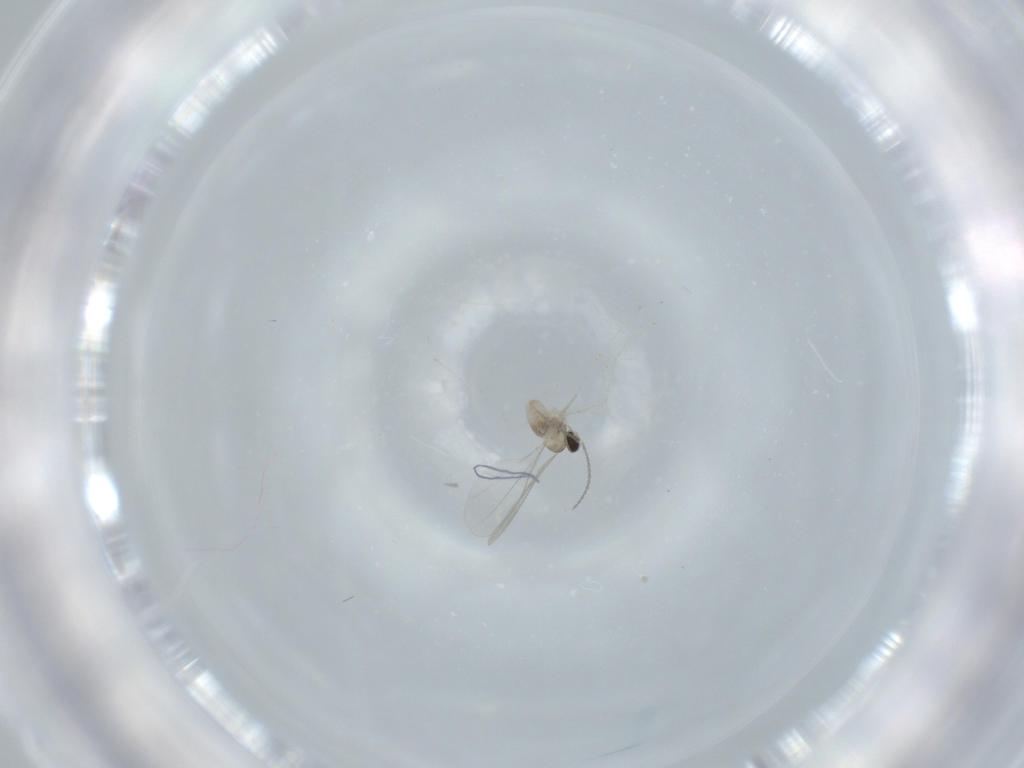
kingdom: Animalia
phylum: Arthropoda
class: Insecta
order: Diptera
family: Cecidomyiidae
